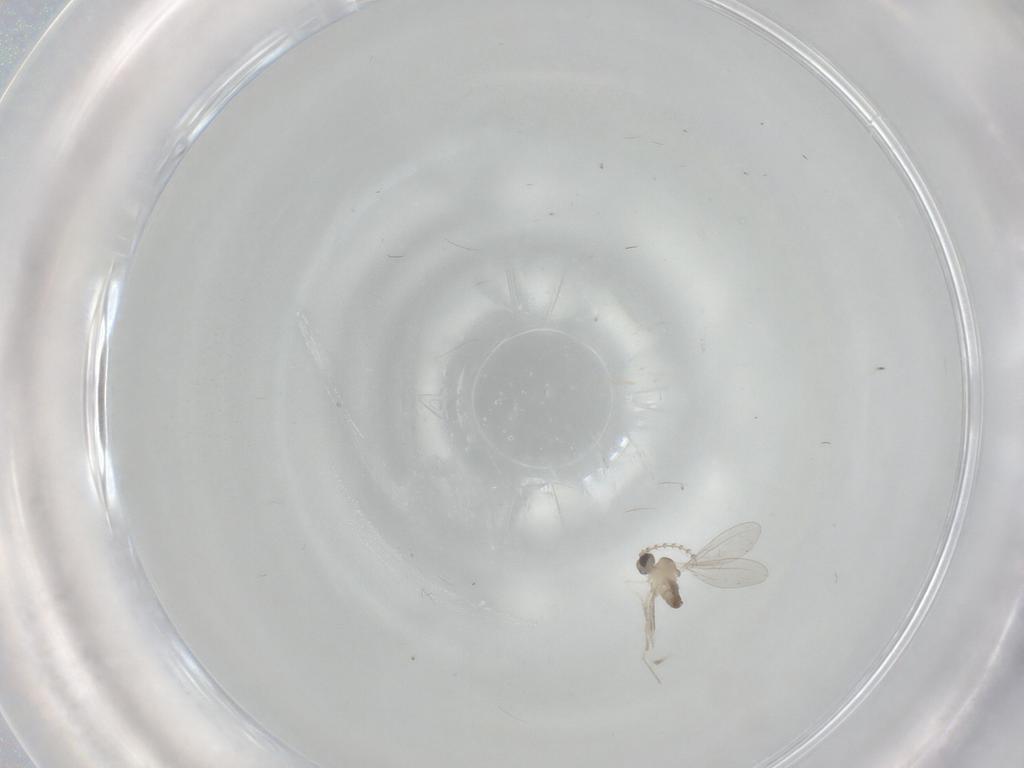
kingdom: Animalia
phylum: Arthropoda
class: Insecta
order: Diptera
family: Cecidomyiidae
